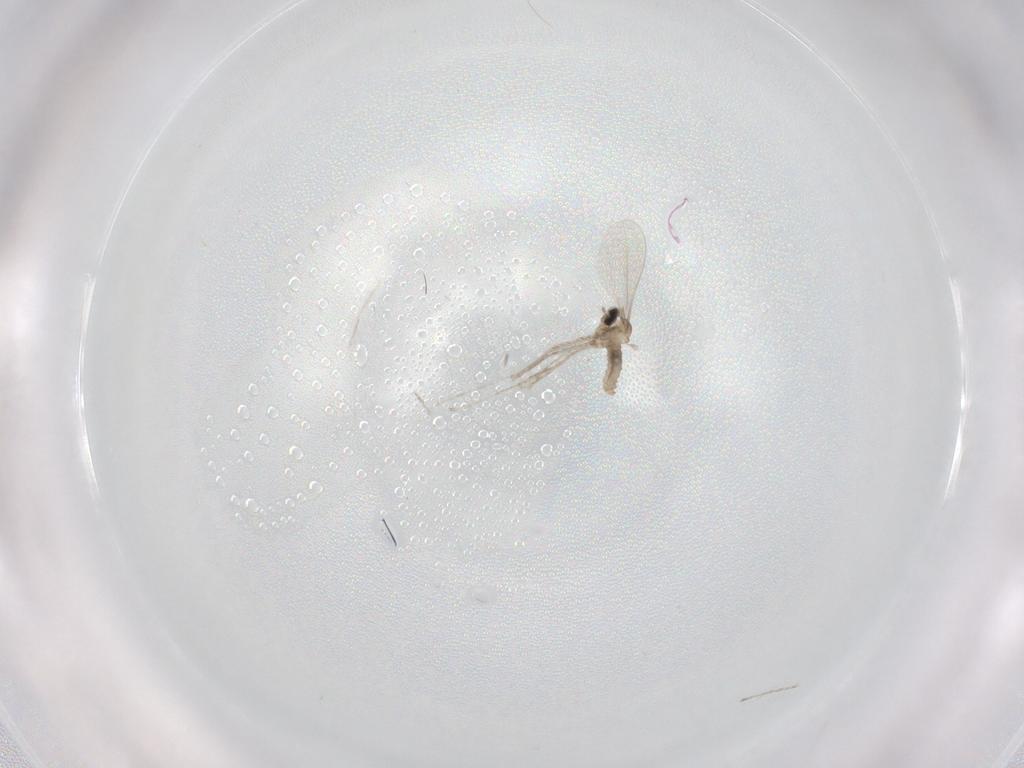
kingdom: Animalia
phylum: Arthropoda
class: Insecta
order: Diptera
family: Cecidomyiidae
